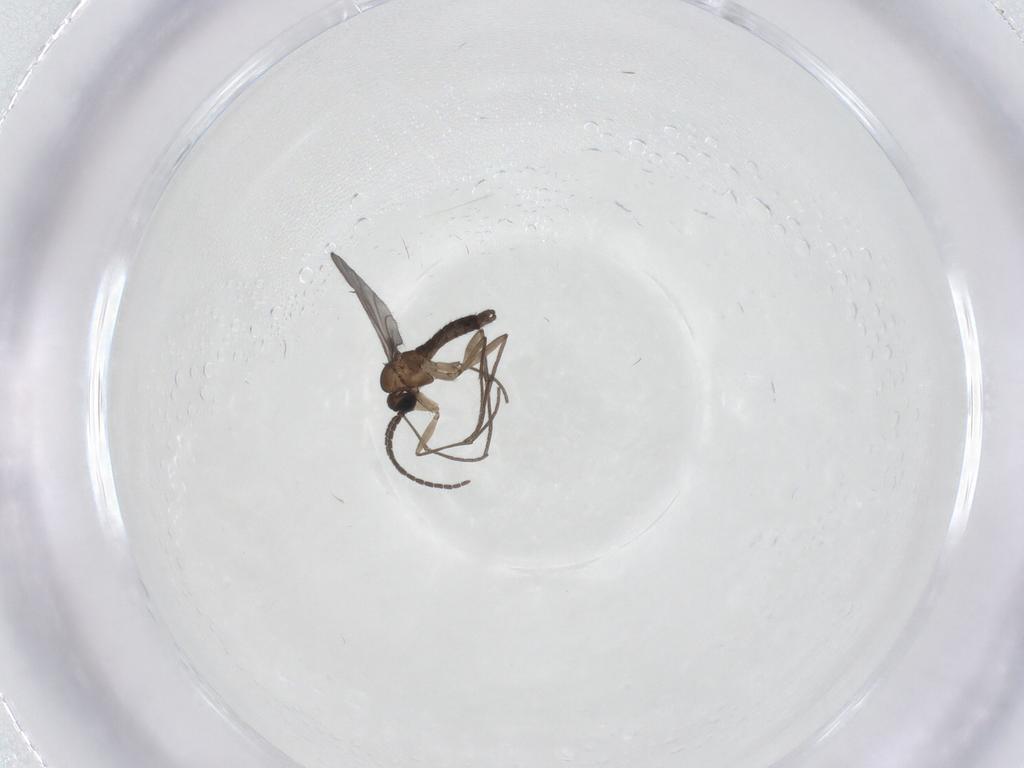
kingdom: Animalia
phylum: Arthropoda
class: Insecta
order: Diptera
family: Sciaridae
